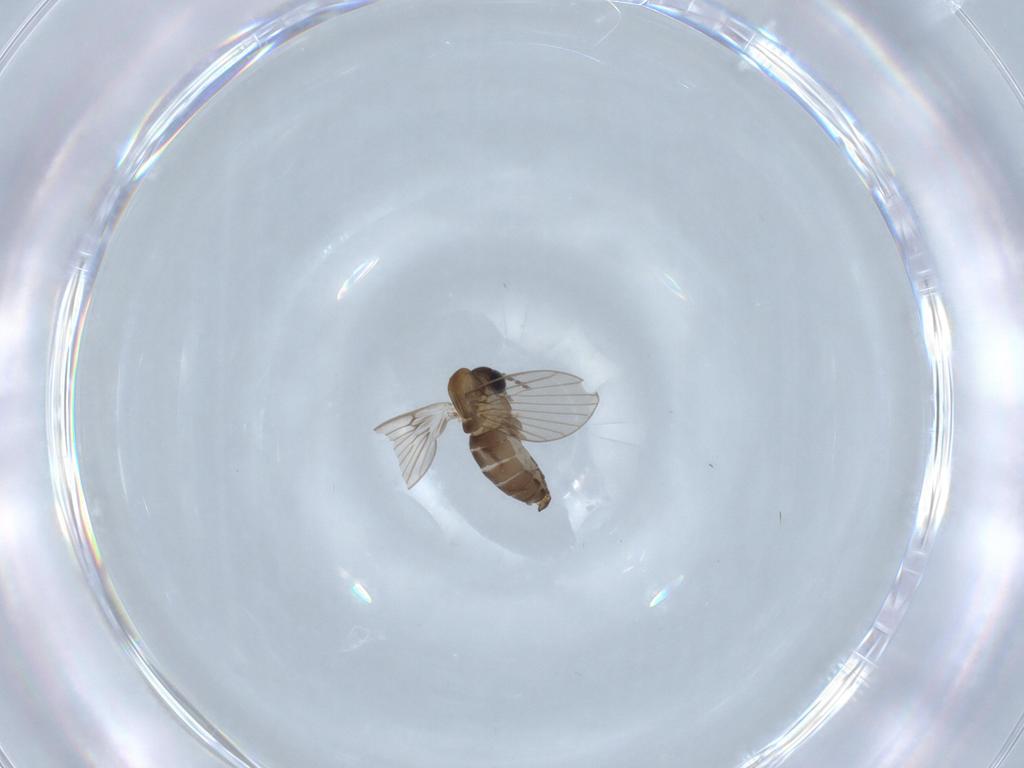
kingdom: Animalia
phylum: Arthropoda
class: Insecta
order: Diptera
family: Psychodidae
